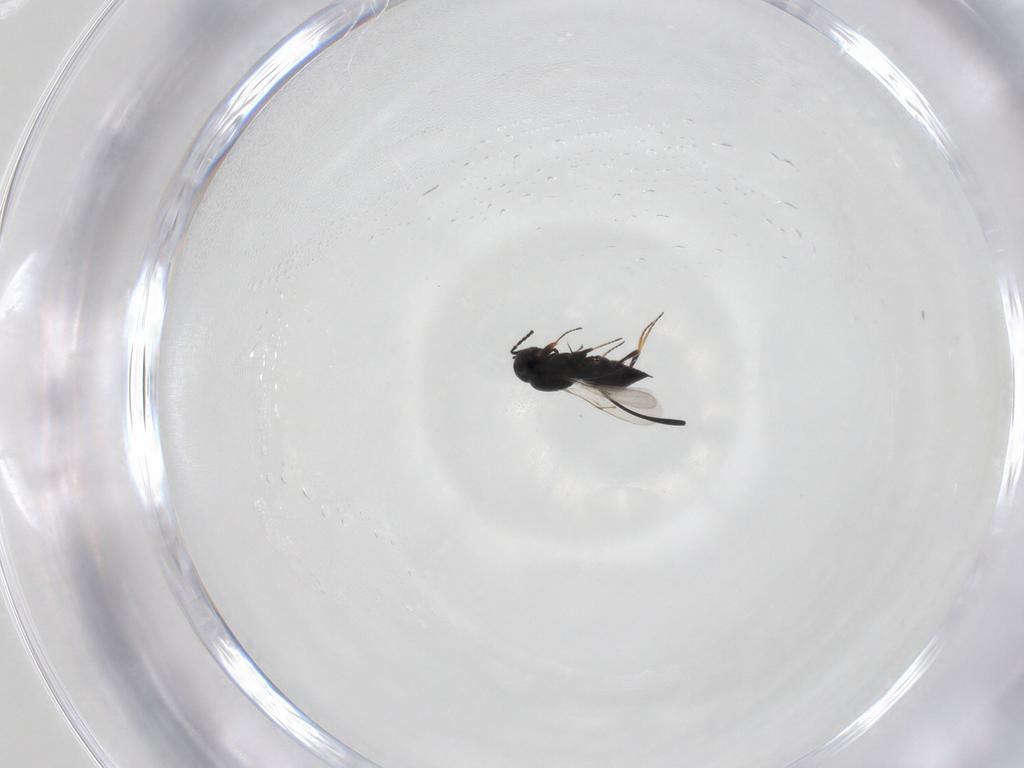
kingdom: Animalia
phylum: Arthropoda
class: Insecta
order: Hymenoptera
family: Scelionidae
